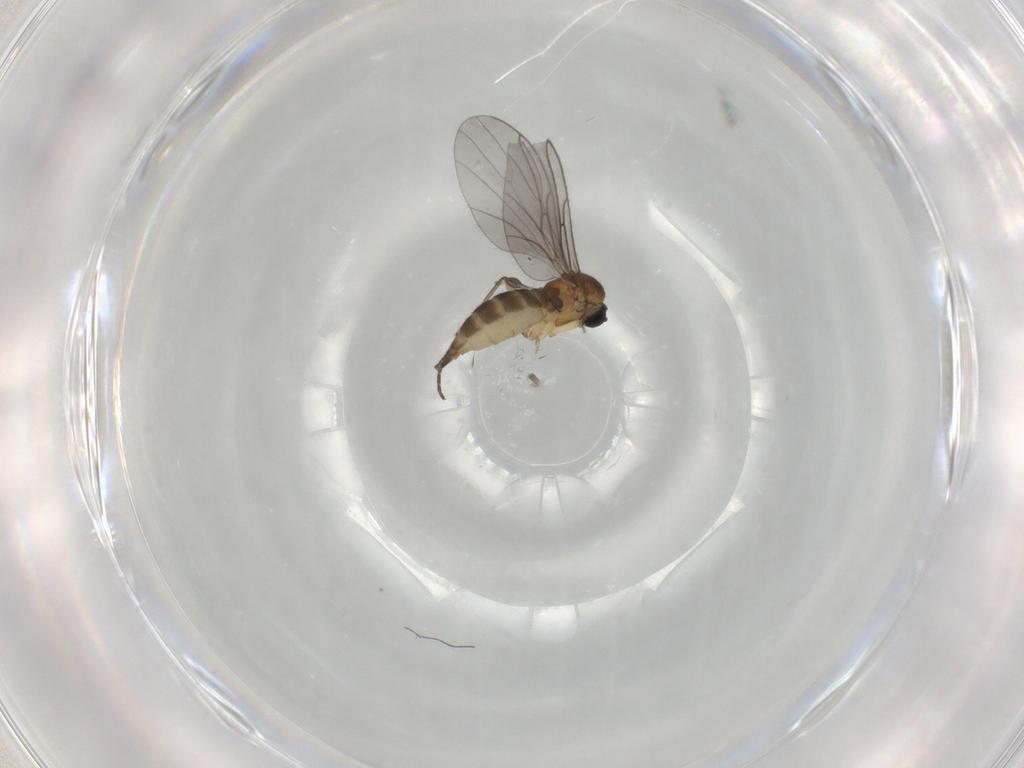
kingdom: Animalia
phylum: Arthropoda
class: Insecta
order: Diptera
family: Sciaridae
